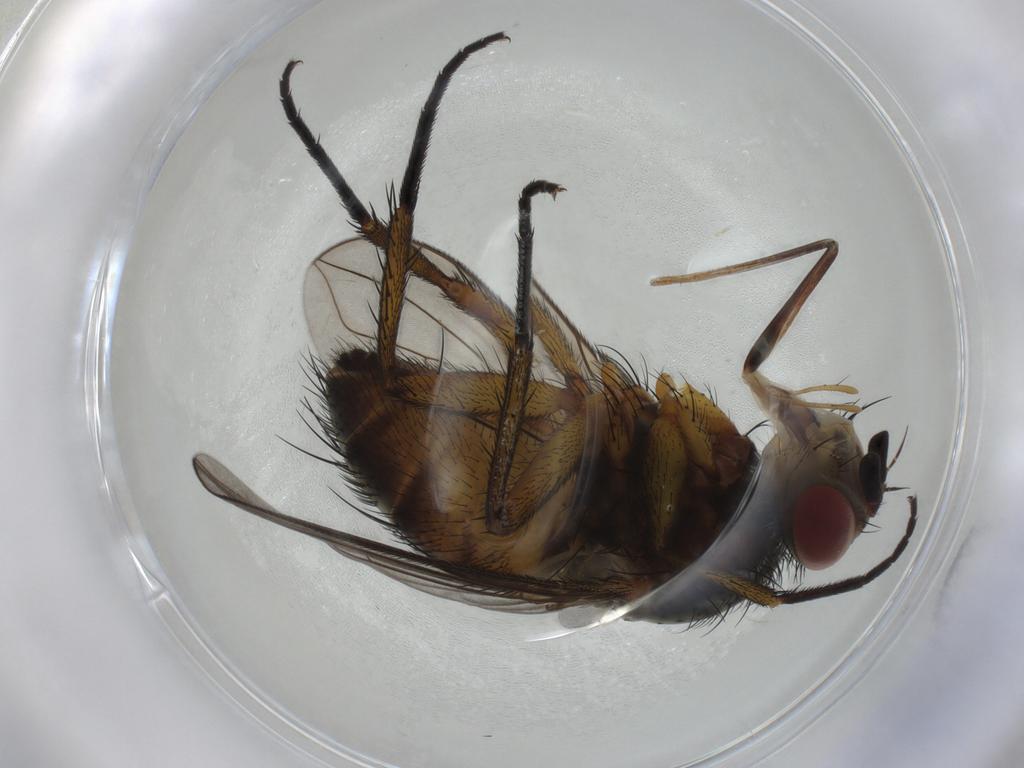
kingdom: Animalia
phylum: Arthropoda
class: Insecta
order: Diptera
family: Tachinidae
